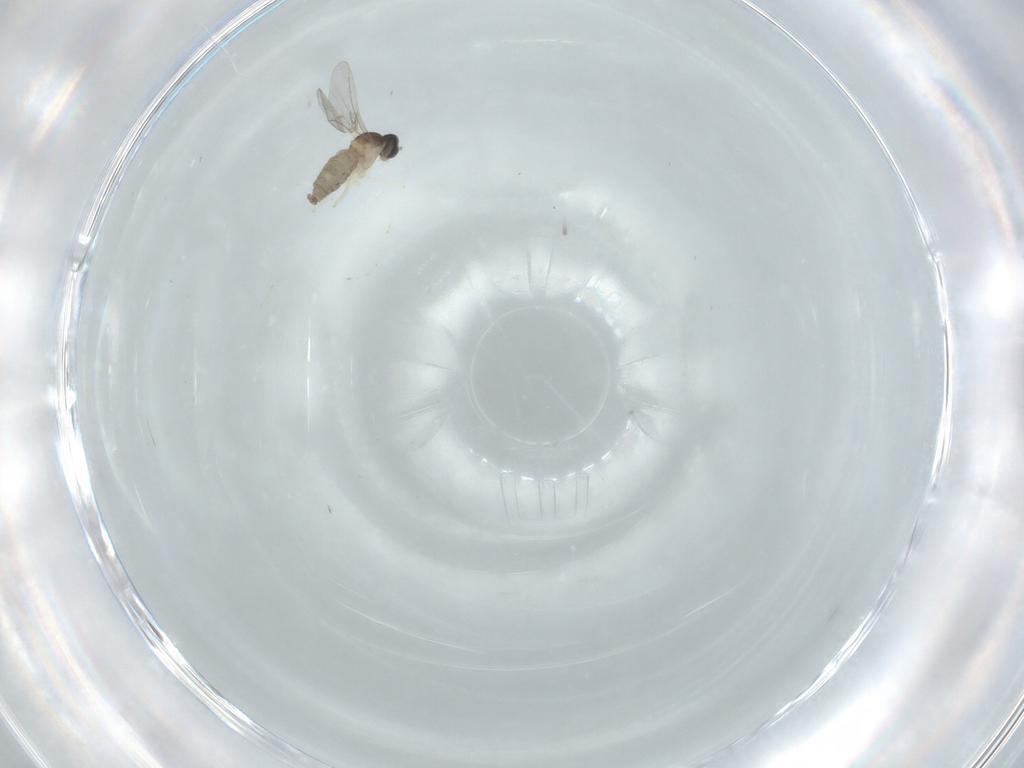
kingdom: Animalia
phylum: Arthropoda
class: Insecta
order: Diptera
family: Cecidomyiidae
